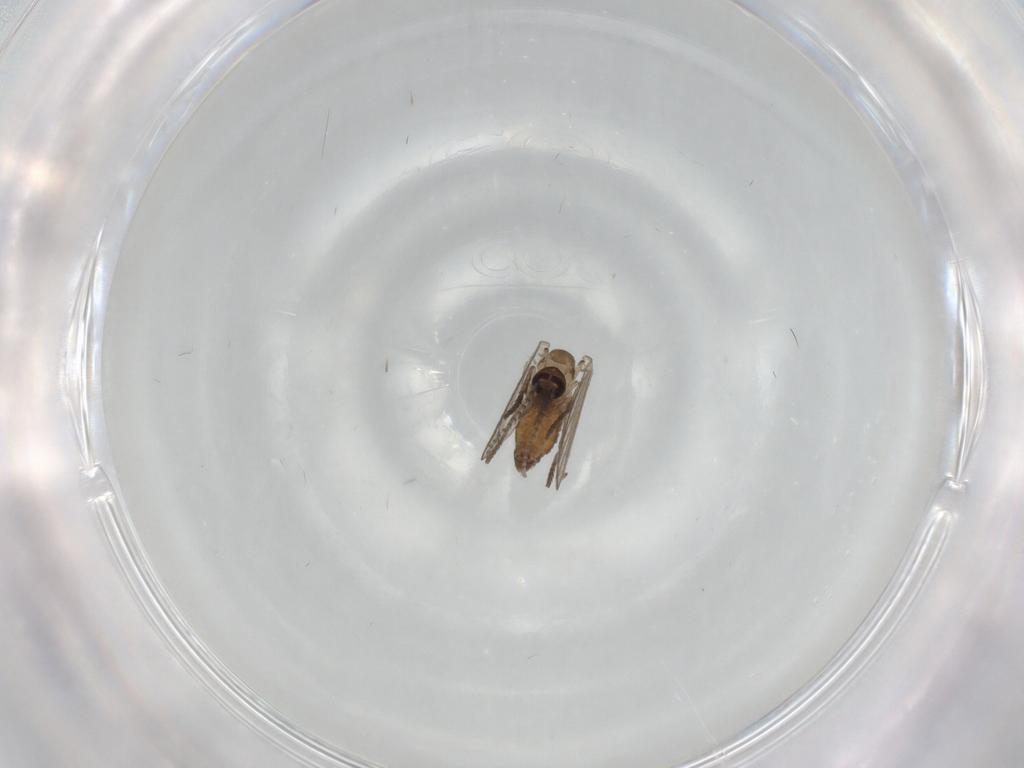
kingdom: Animalia
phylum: Arthropoda
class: Insecta
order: Diptera
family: Psychodidae
